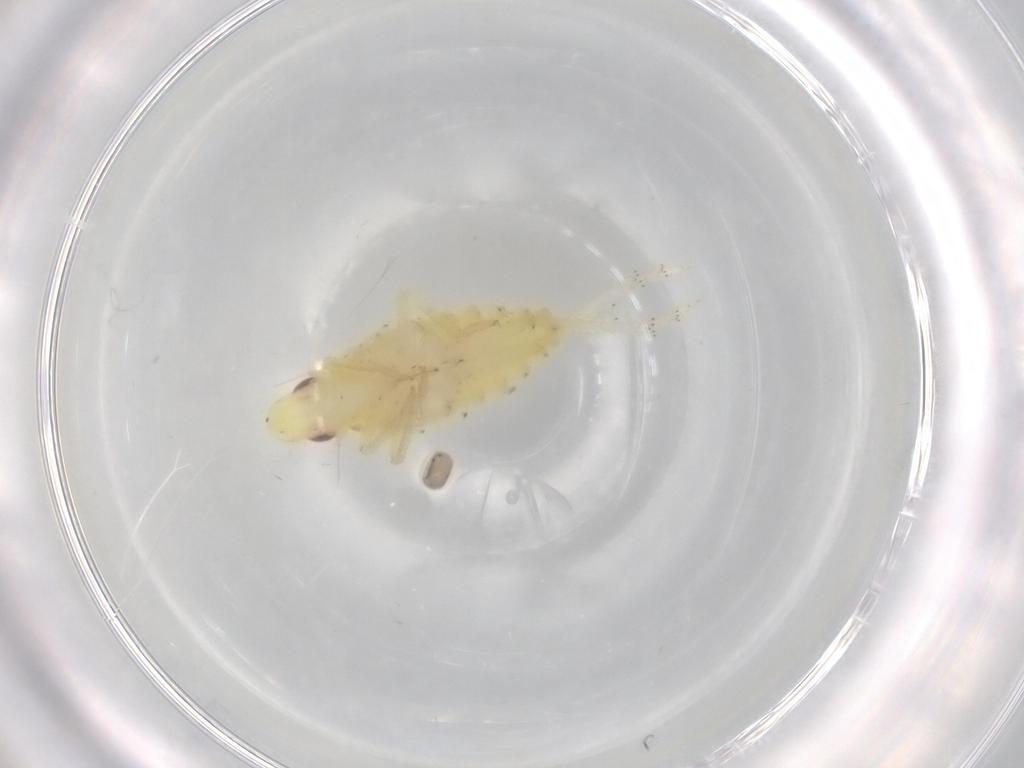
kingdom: Animalia
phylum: Arthropoda
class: Insecta
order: Hemiptera
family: Tropiduchidae
